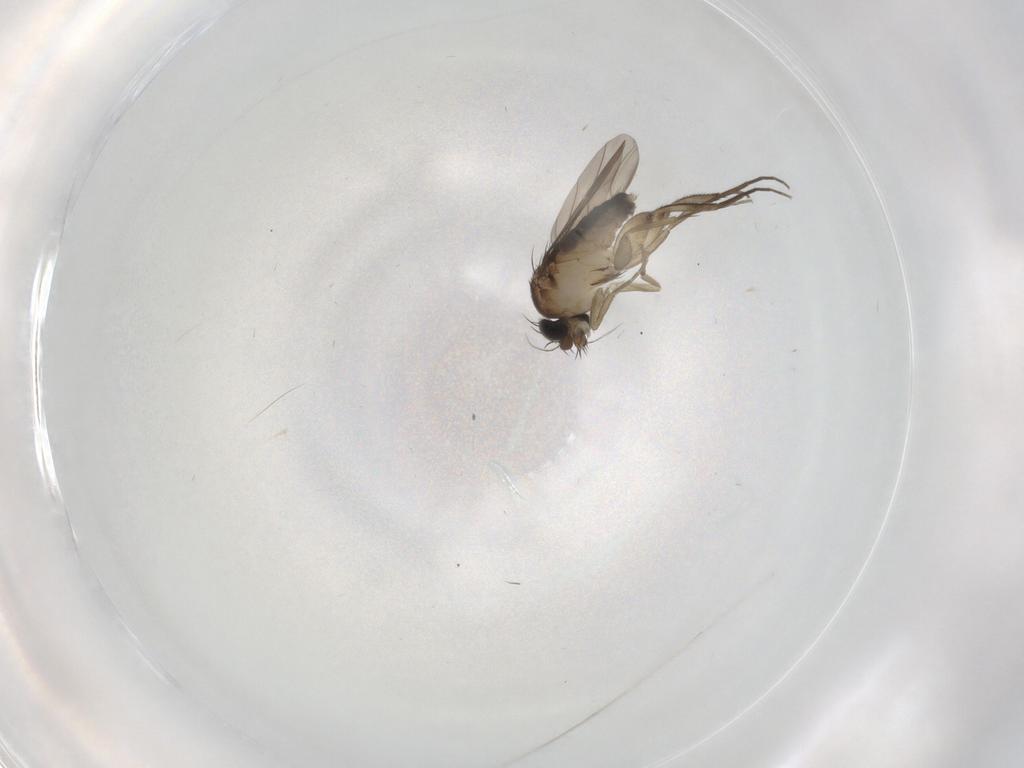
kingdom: Animalia
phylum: Arthropoda
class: Insecta
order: Diptera
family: Phoridae
